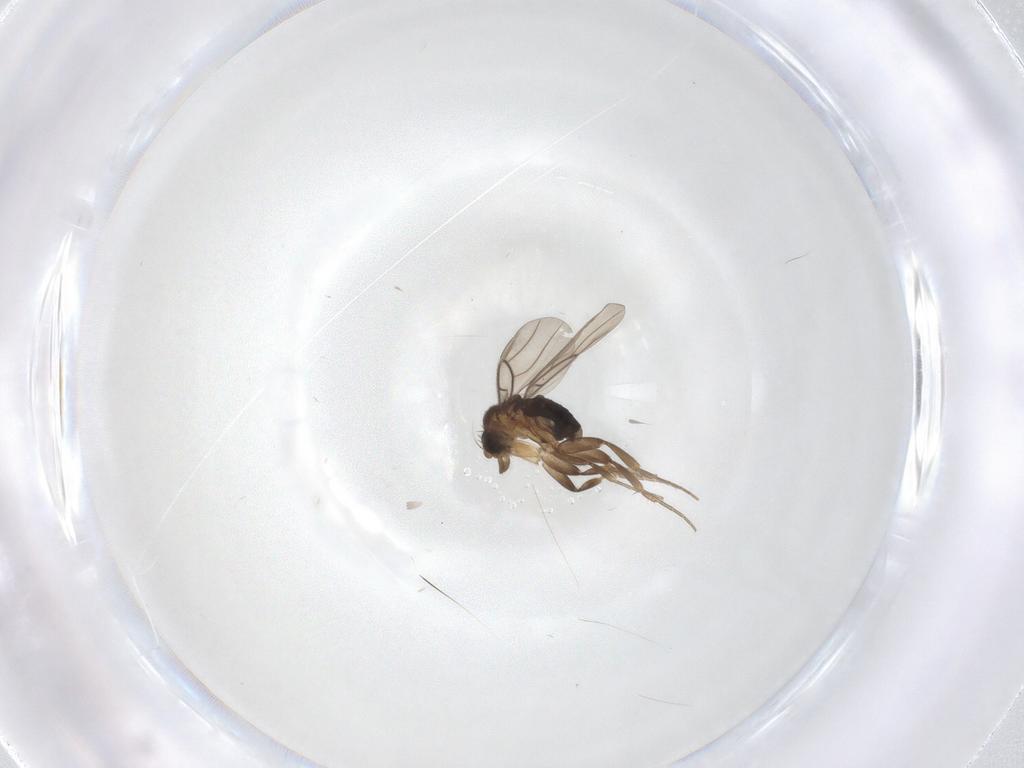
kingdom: Animalia
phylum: Arthropoda
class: Insecta
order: Diptera
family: Phoridae
